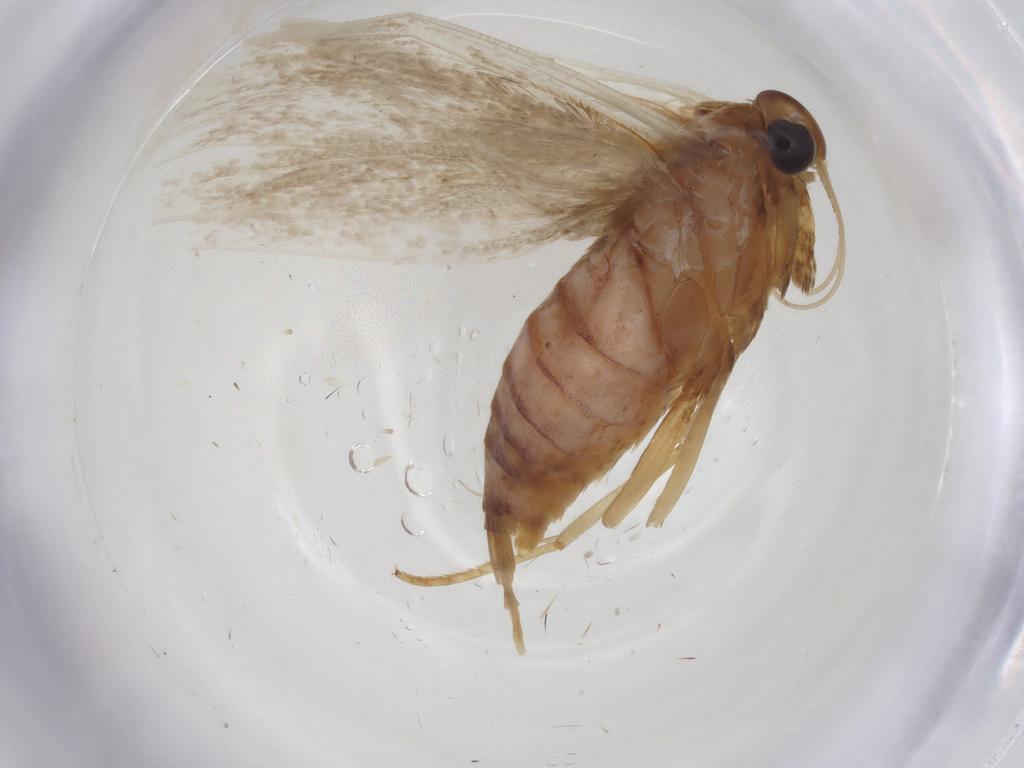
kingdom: Animalia
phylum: Arthropoda
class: Insecta
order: Lepidoptera
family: Blastobasidae
